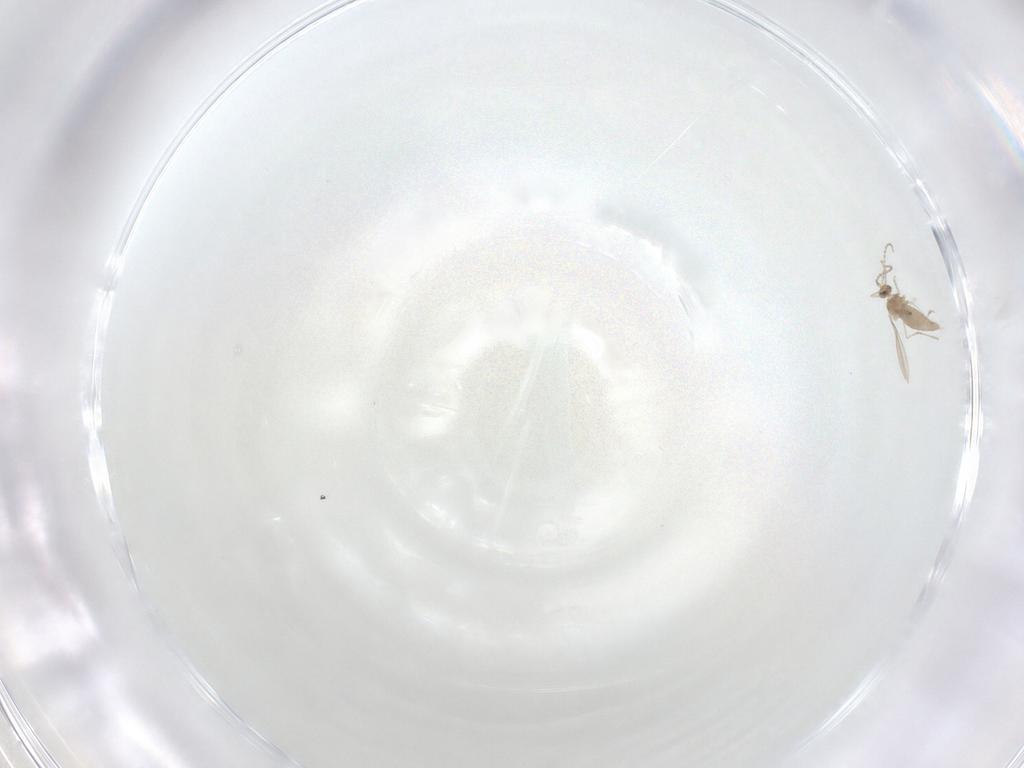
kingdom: Animalia
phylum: Arthropoda
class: Insecta
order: Diptera
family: Cecidomyiidae
